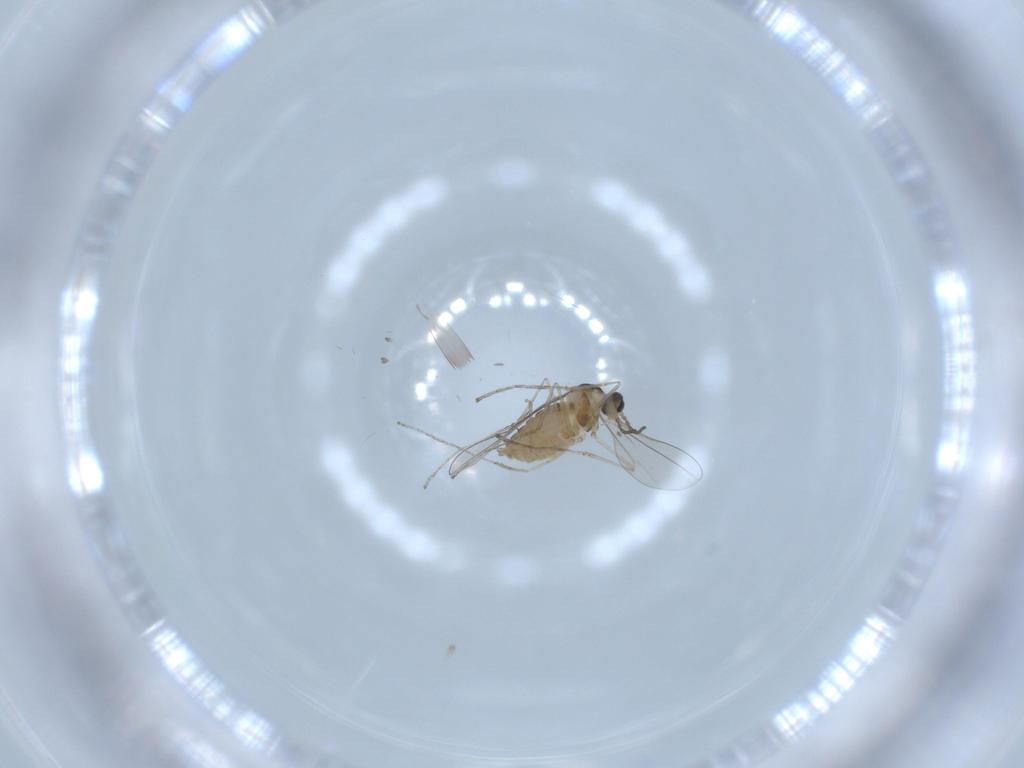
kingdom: Animalia
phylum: Arthropoda
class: Insecta
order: Diptera
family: Cecidomyiidae
